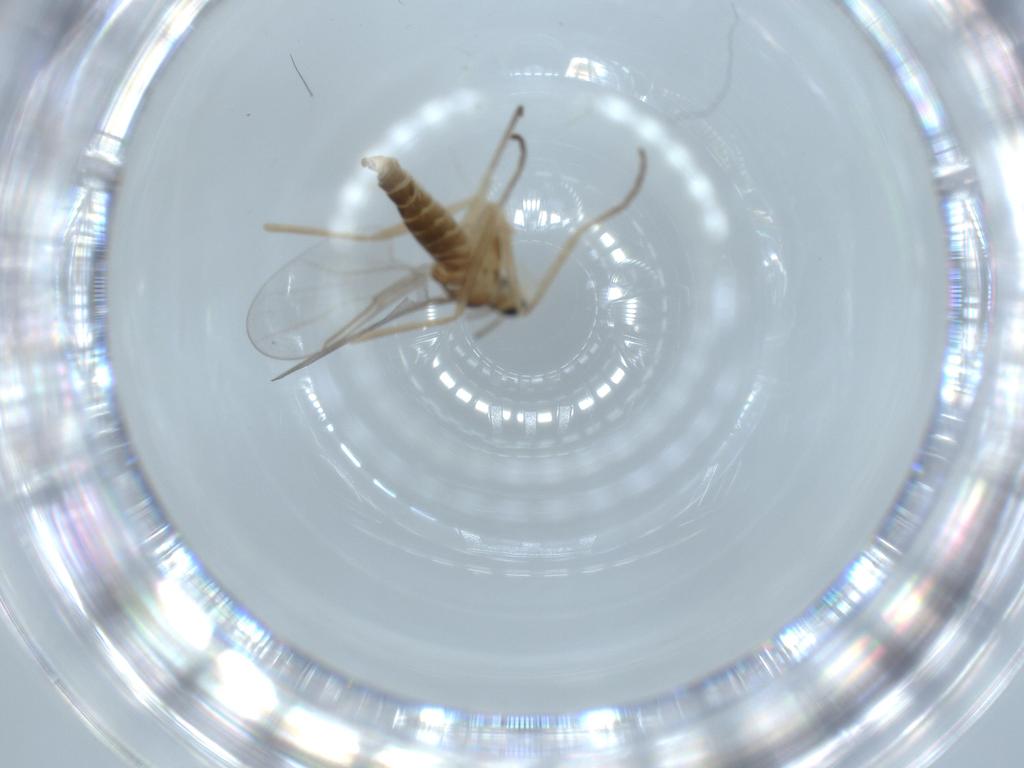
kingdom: Animalia
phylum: Arthropoda
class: Insecta
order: Diptera
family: Cecidomyiidae
